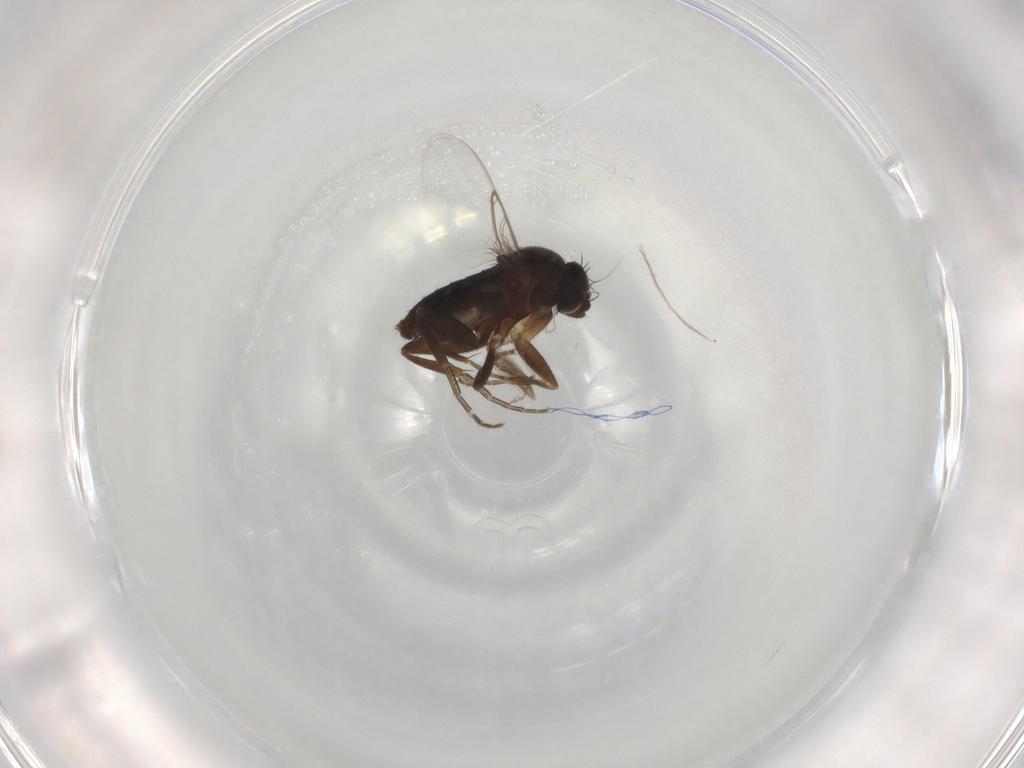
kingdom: Animalia
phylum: Arthropoda
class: Insecta
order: Diptera
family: Phoridae
